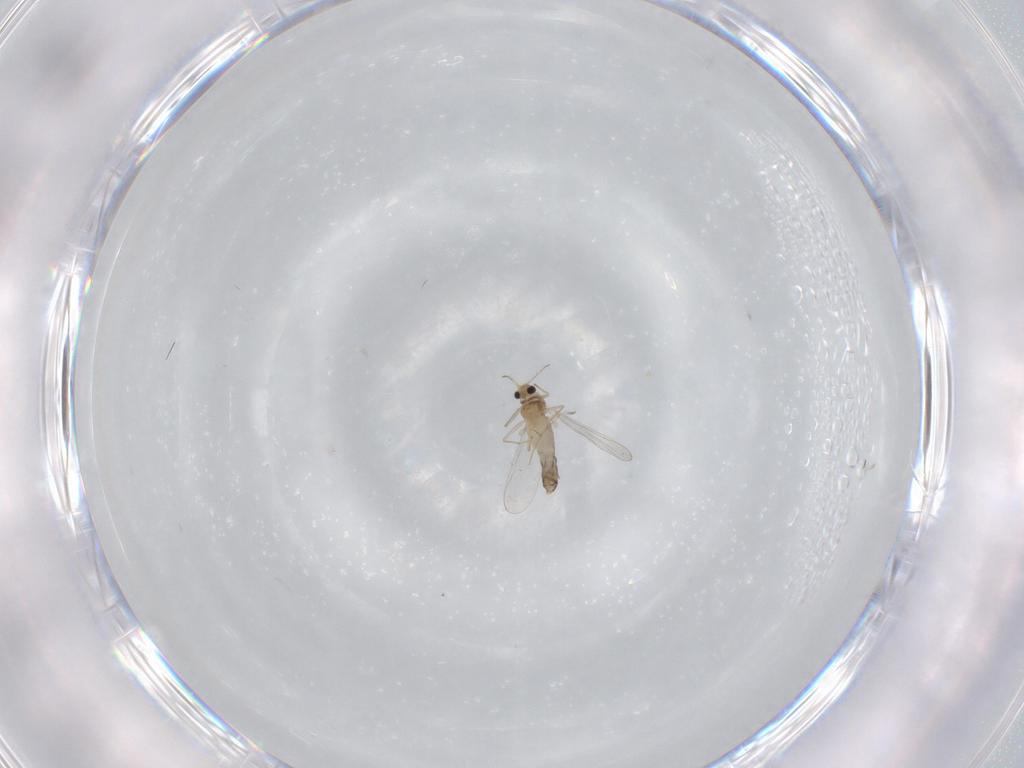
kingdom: Animalia
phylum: Arthropoda
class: Insecta
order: Diptera
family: Chironomidae
